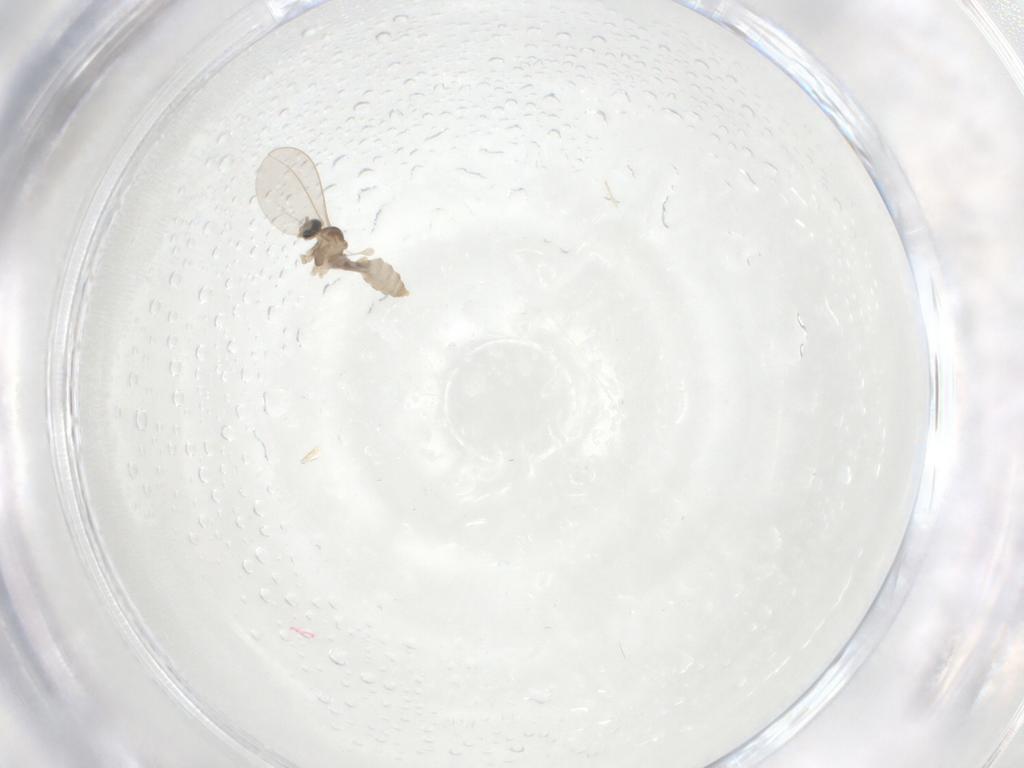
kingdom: Animalia
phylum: Arthropoda
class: Insecta
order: Diptera
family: Cecidomyiidae
